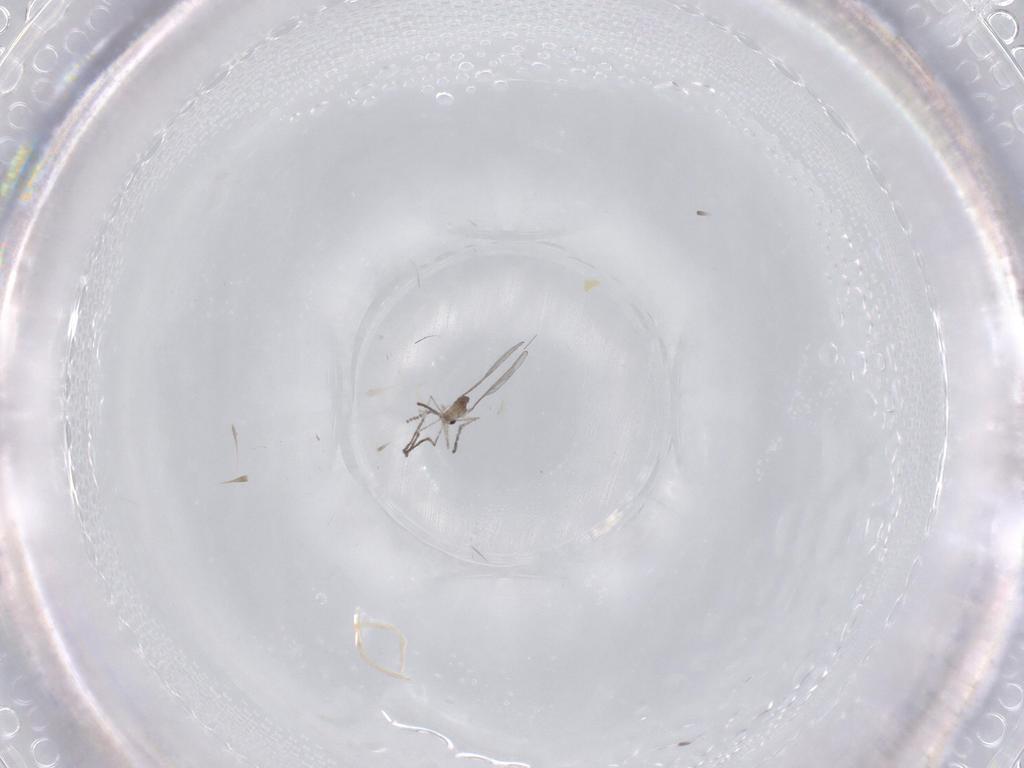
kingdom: Animalia
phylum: Arthropoda
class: Insecta
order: Diptera
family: Cecidomyiidae
